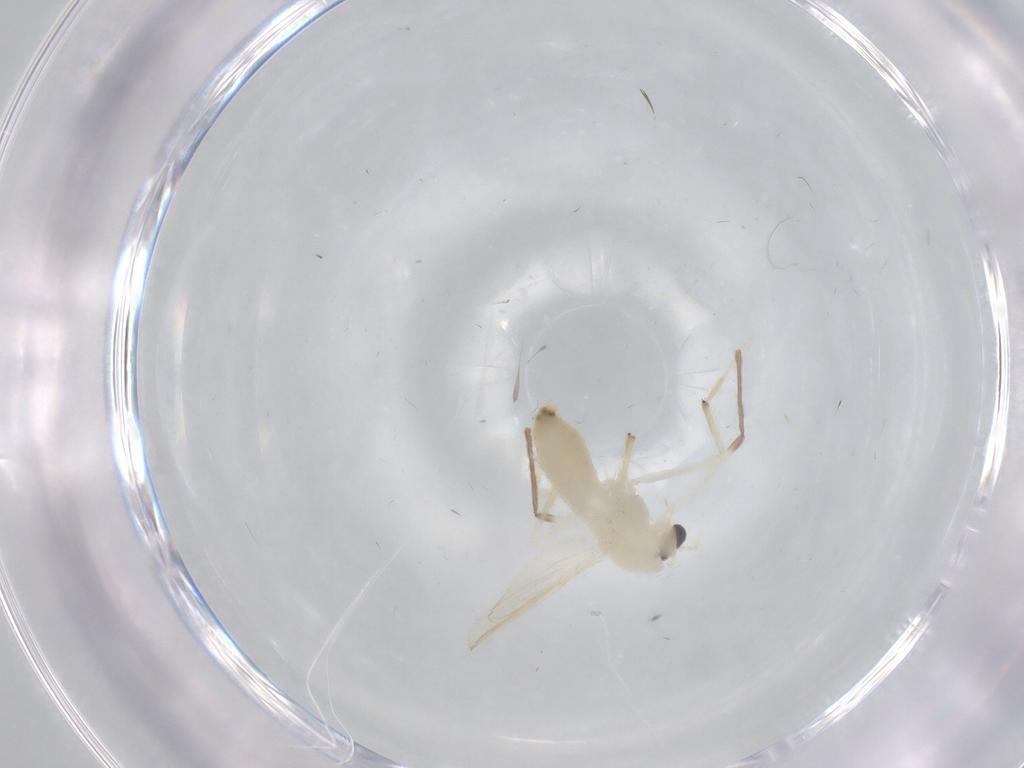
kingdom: Animalia
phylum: Arthropoda
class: Insecta
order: Diptera
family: Chironomidae
